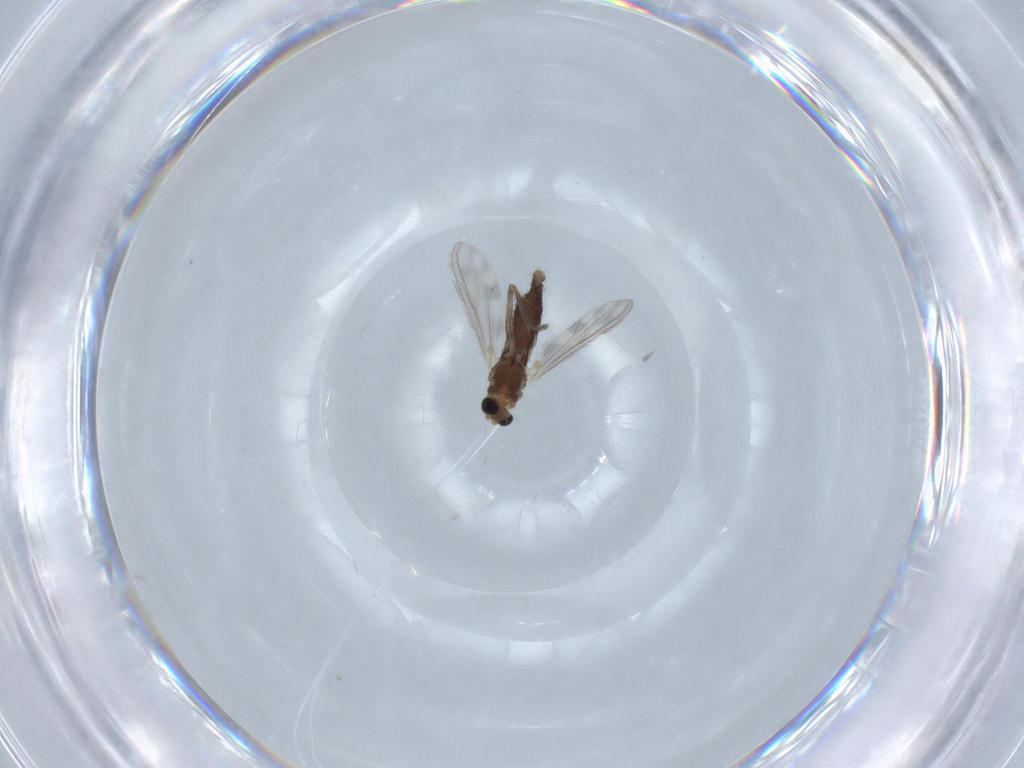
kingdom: Animalia
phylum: Arthropoda
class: Insecta
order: Diptera
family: Chironomidae
